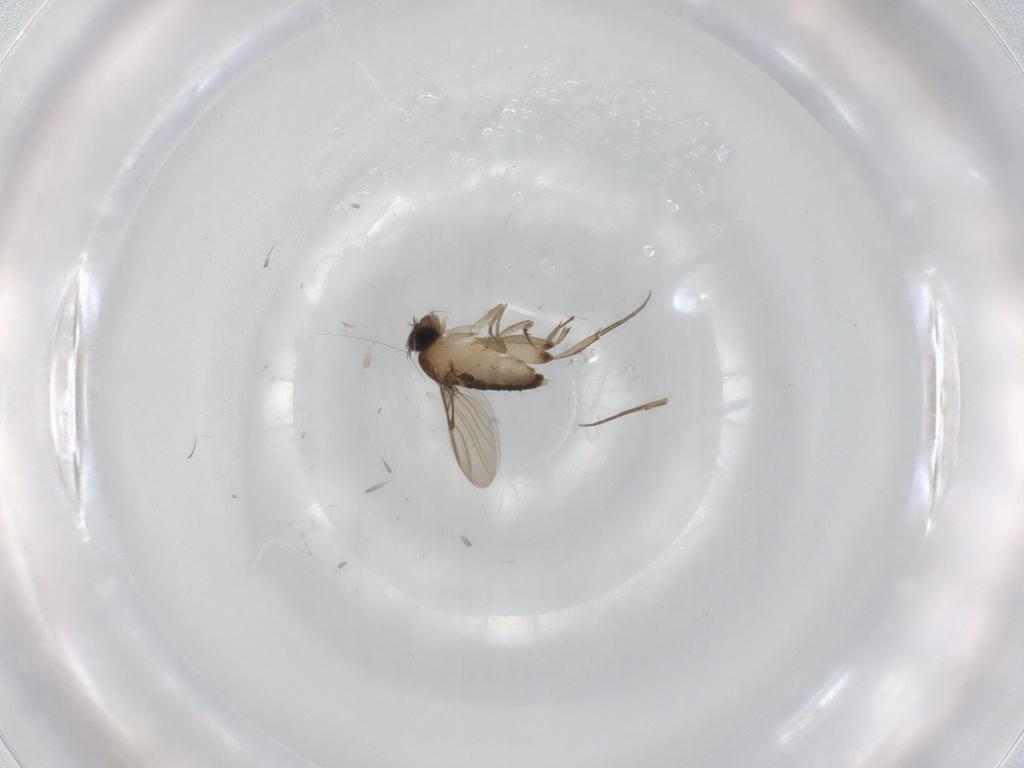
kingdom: Animalia
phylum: Arthropoda
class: Insecta
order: Diptera
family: Phoridae
